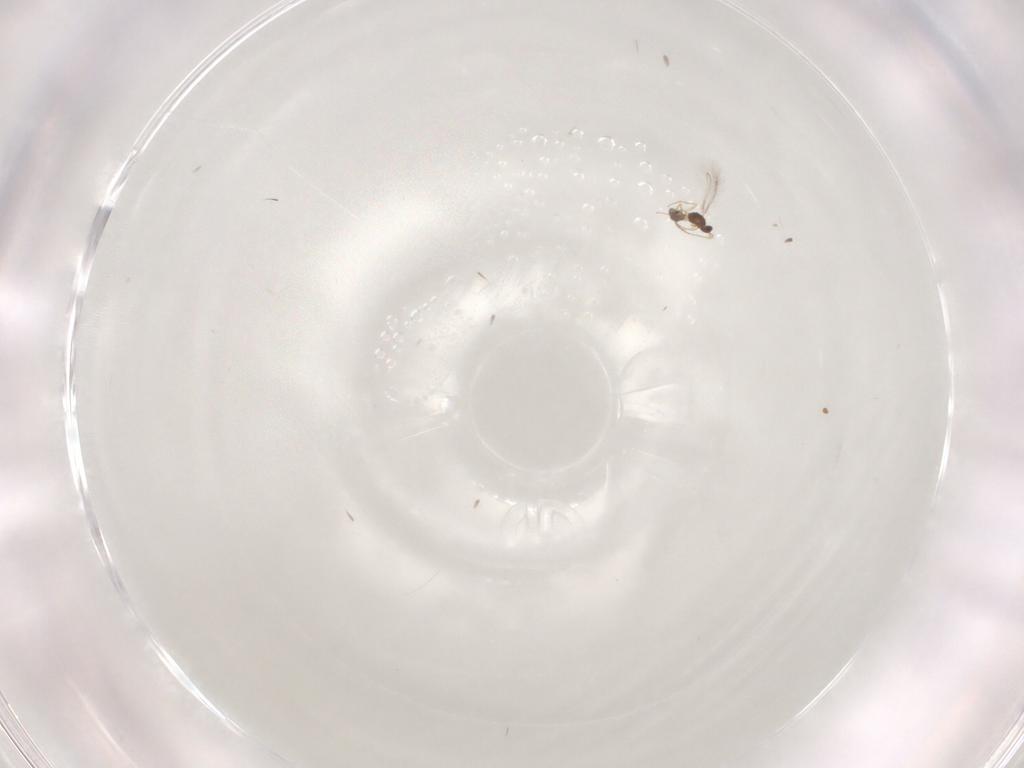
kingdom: Animalia
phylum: Arthropoda
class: Insecta
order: Hymenoptera
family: Mymaridae
